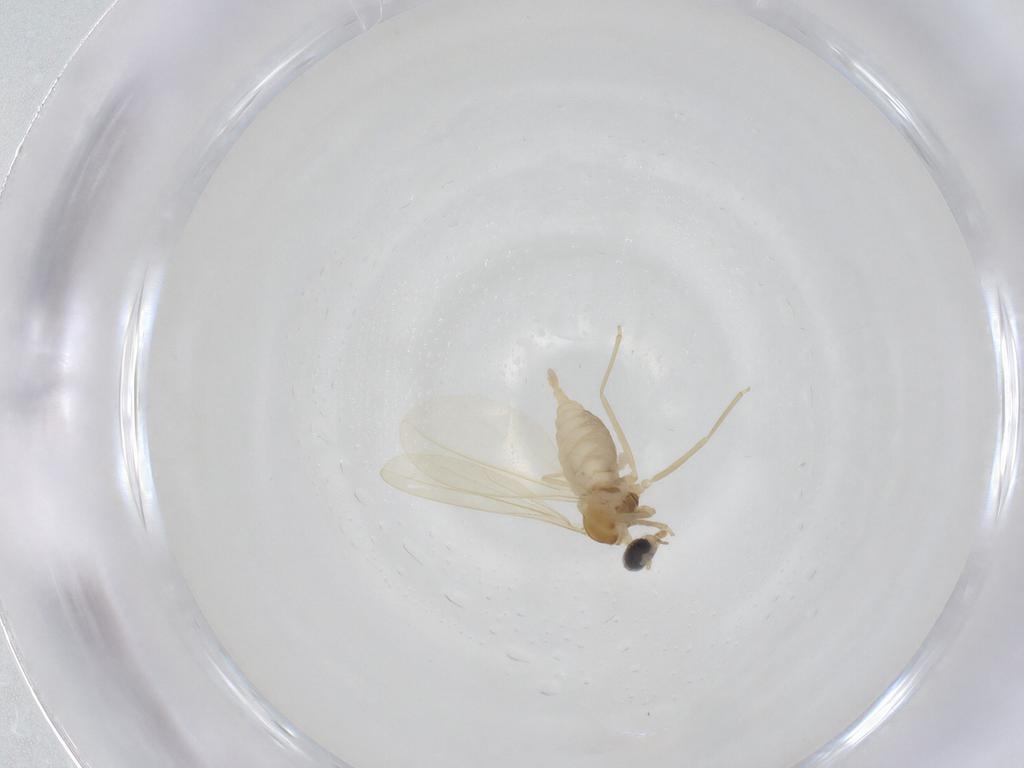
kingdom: Animalia
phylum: Arthropoda
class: Insecta
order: Diptera
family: Cecidomyiidae
